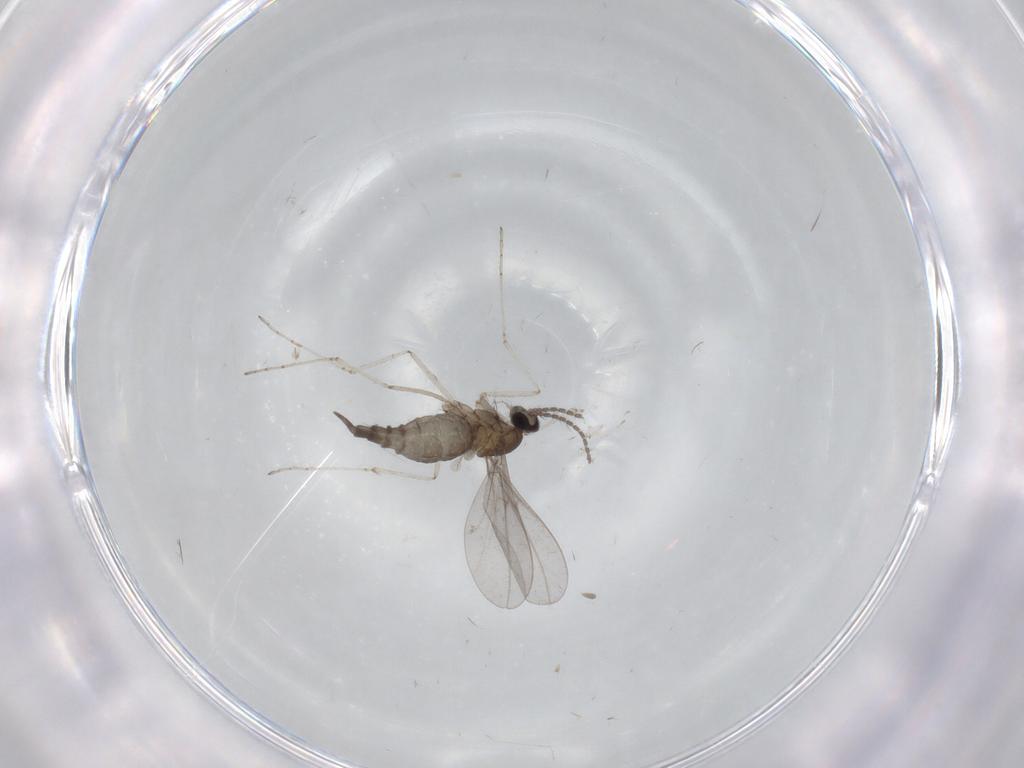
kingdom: Animalia
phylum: Arthropoda
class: Insecta
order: Diptera
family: Cecidomyiidae
